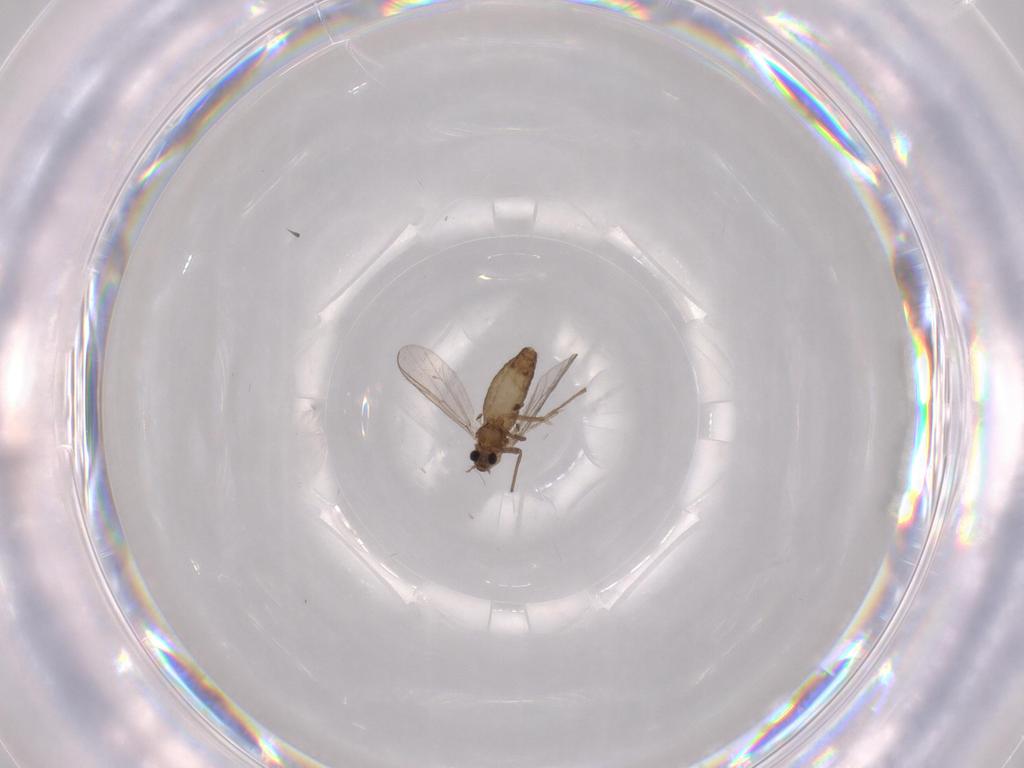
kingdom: Animalia
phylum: Arthropoda
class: Insecta
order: Diptera
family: Chironomidae
